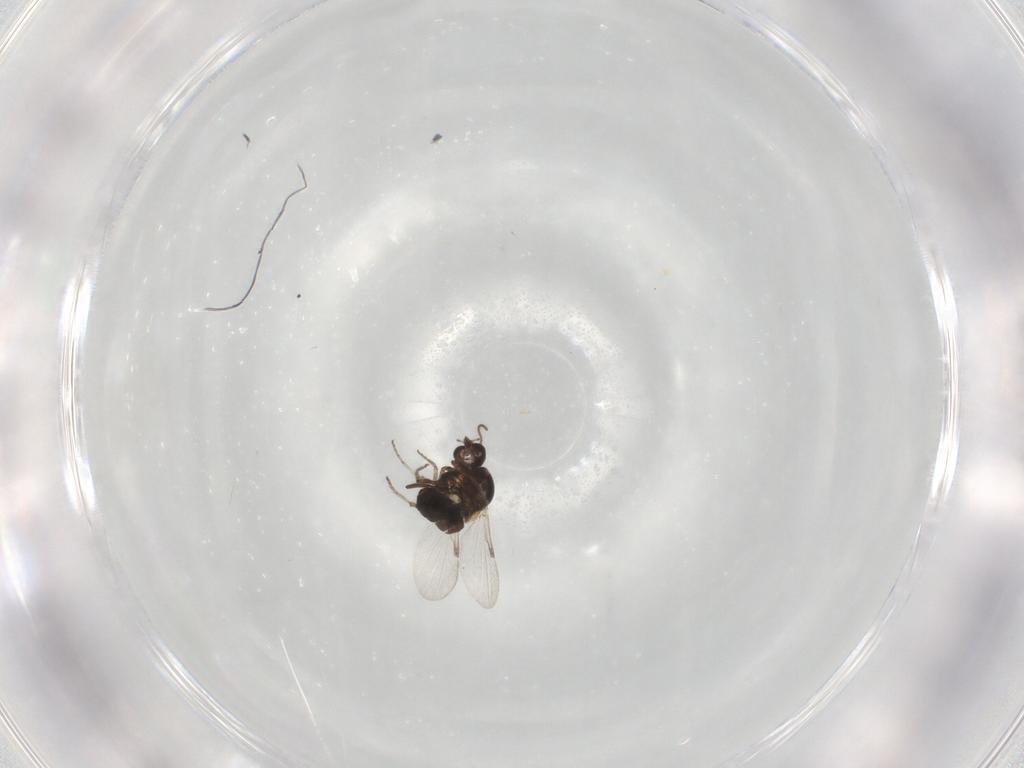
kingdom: Animalia
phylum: Arthropoda
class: Insecta
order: Diptera
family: Ceratopogonidae
